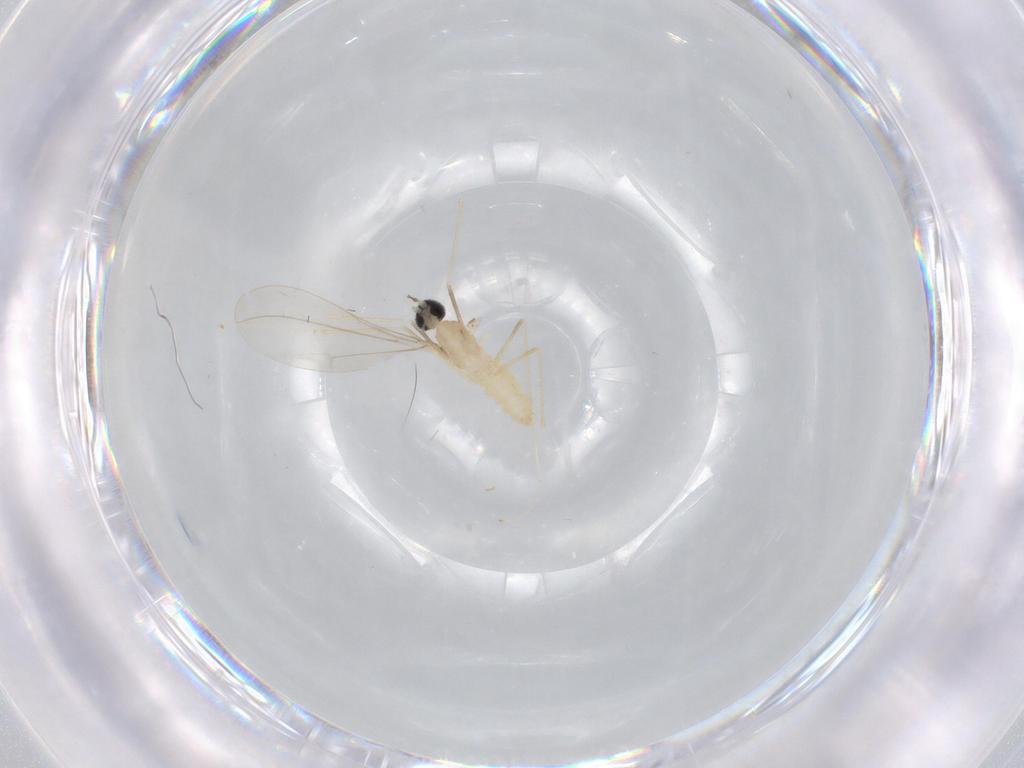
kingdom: Animalia
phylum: Arthropoda
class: Insecta
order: Diptera
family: Cecidomyiidae
